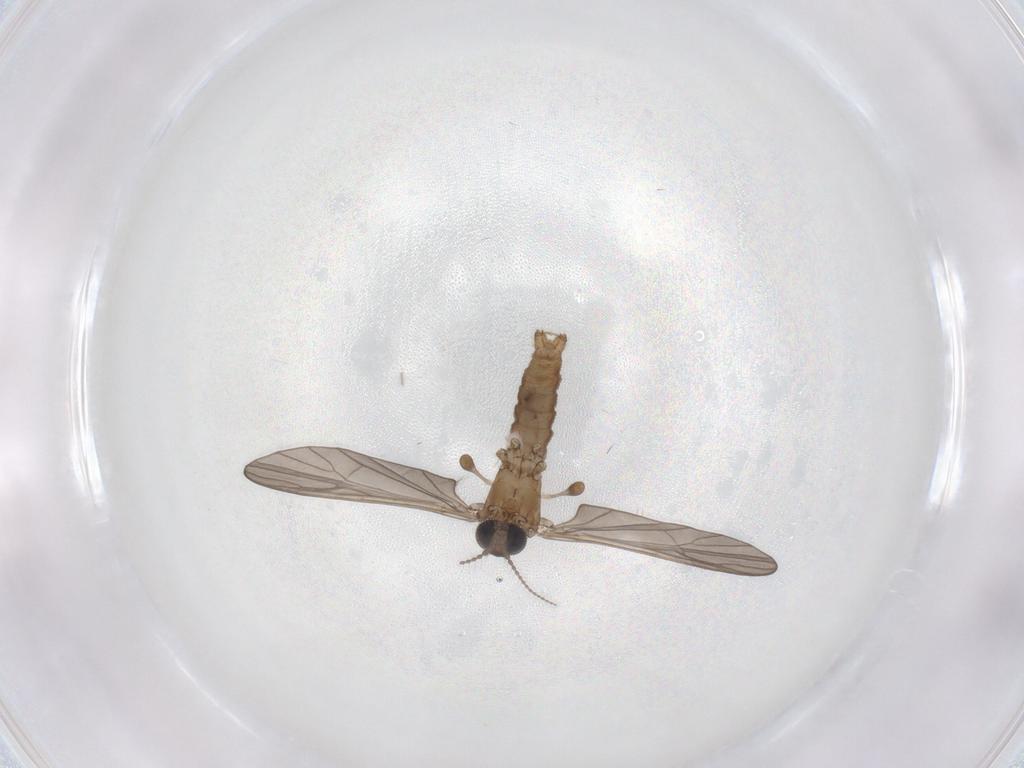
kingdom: Animalia
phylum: Arthropoda
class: Insecta
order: Diptera
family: Cecidomyiidae
